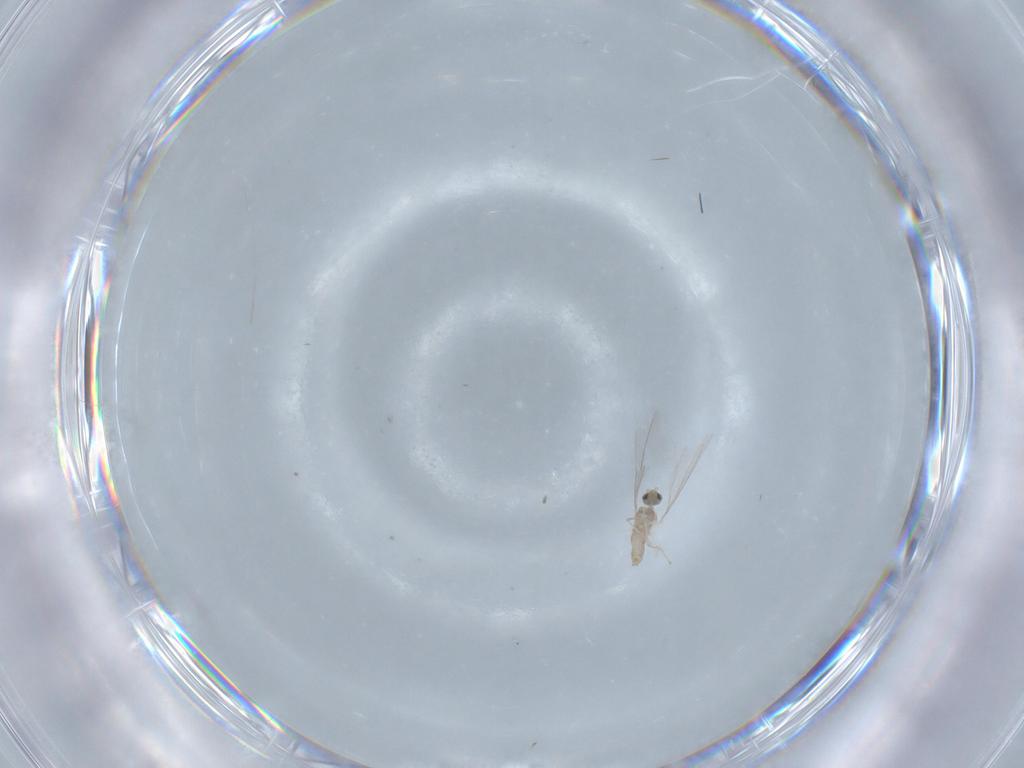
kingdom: Animalia
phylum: Arthropoda
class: Insecta
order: Diptera
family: Cecidomyiidae
